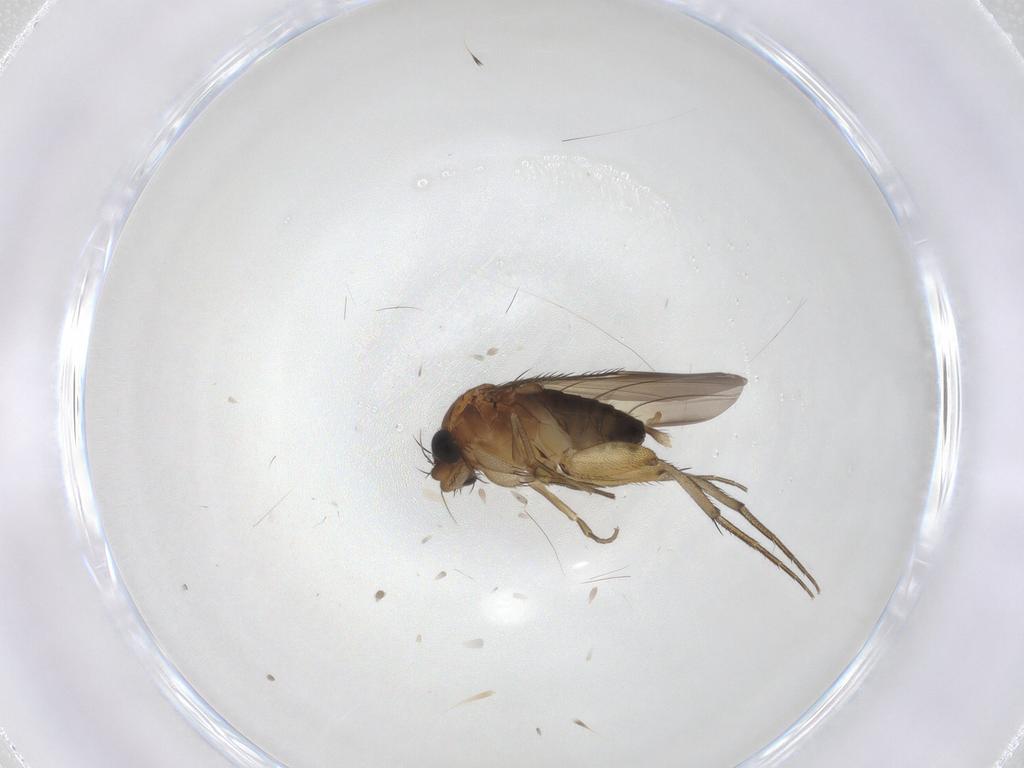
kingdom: Animalia
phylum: Arthropoda
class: Insecta
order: Diptera
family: Phoridae
